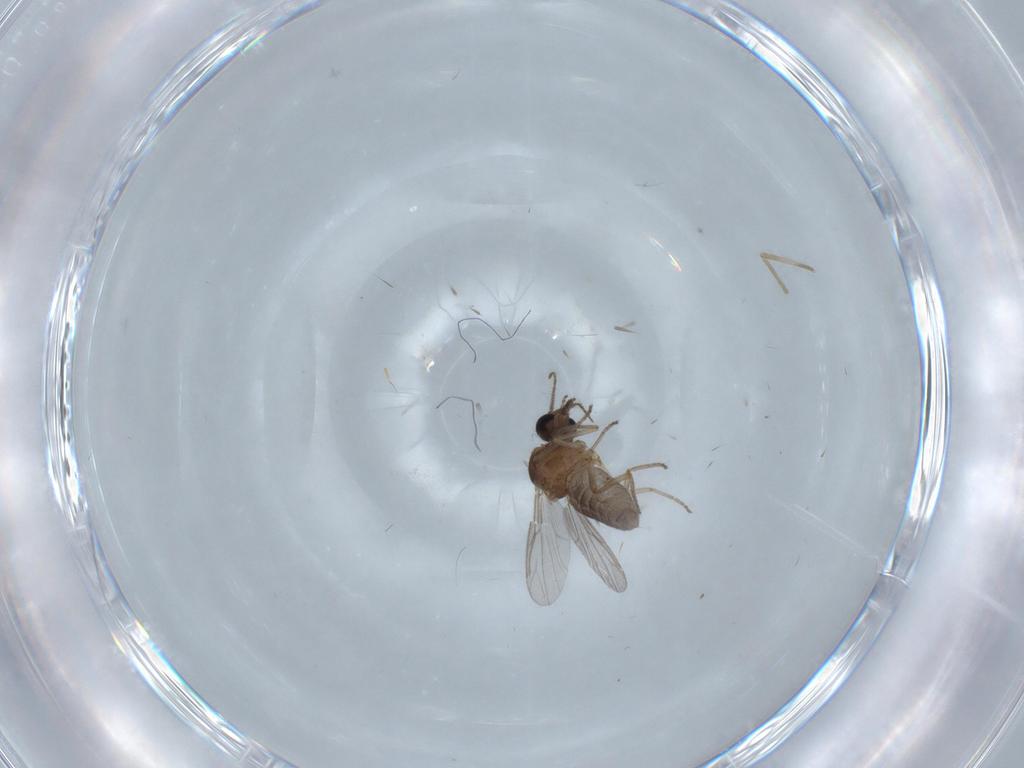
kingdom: Animalia
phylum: Arthropoda
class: Insecta
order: Diptera
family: Ceratopogonidae
